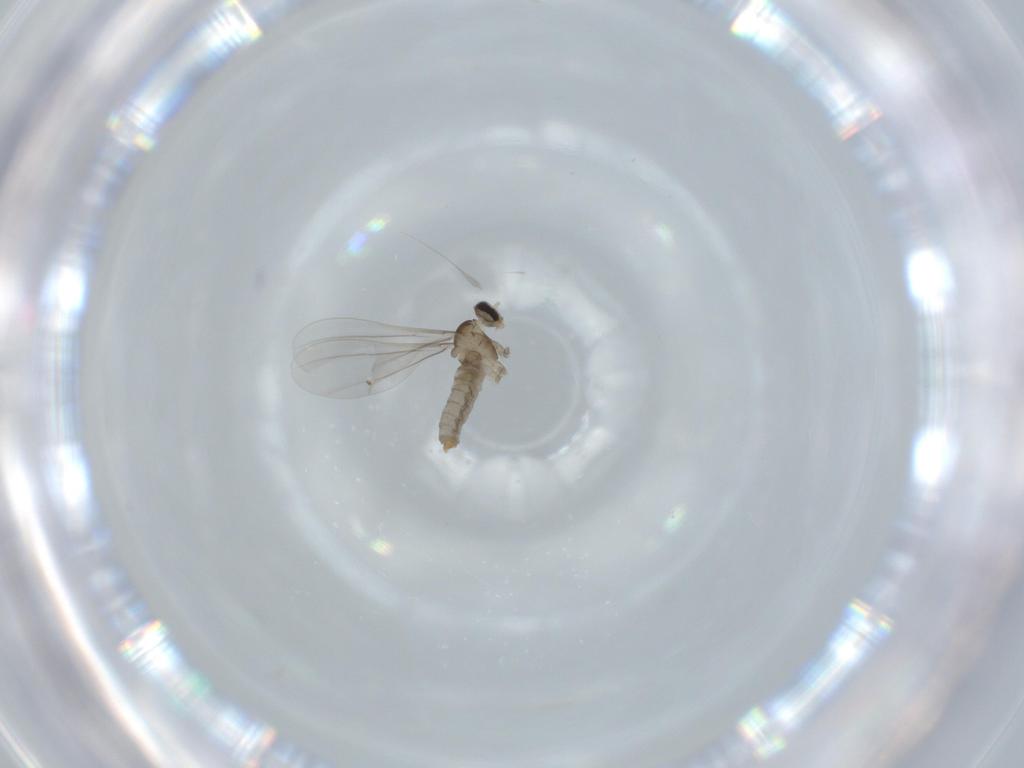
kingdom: Animalia
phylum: Arthropoda
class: Insecta
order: Diptera
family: Cecidomyiidae
